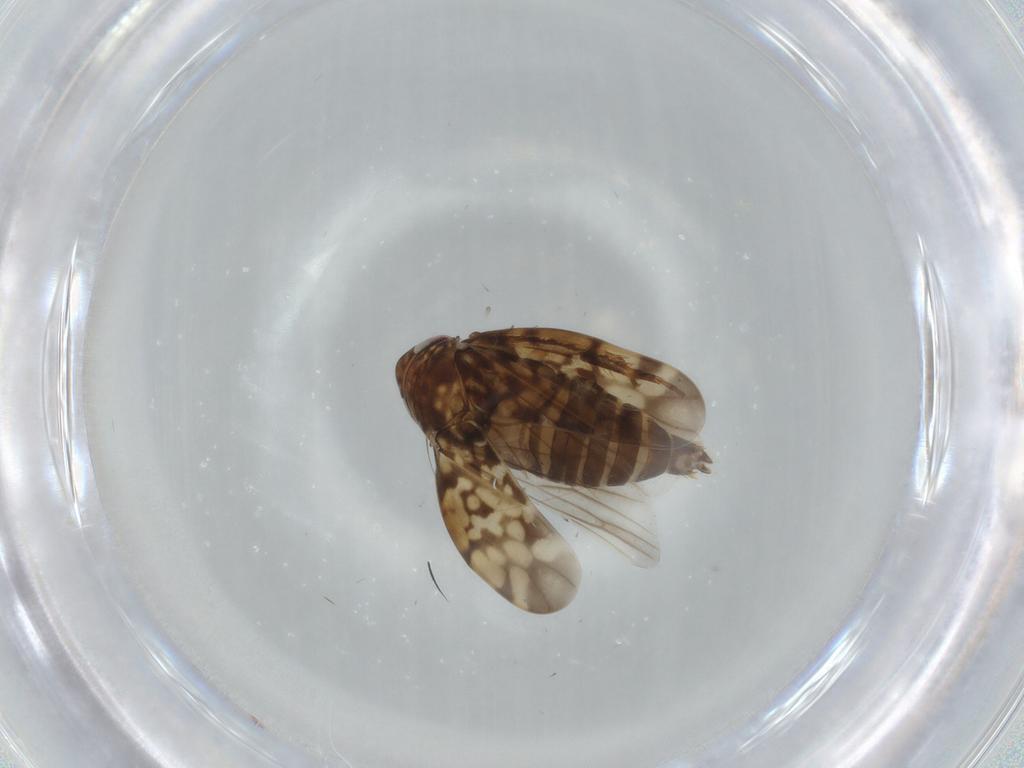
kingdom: Animalia
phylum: Arthropoda
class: Insecta
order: Hemiptera
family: Cicadellidae
